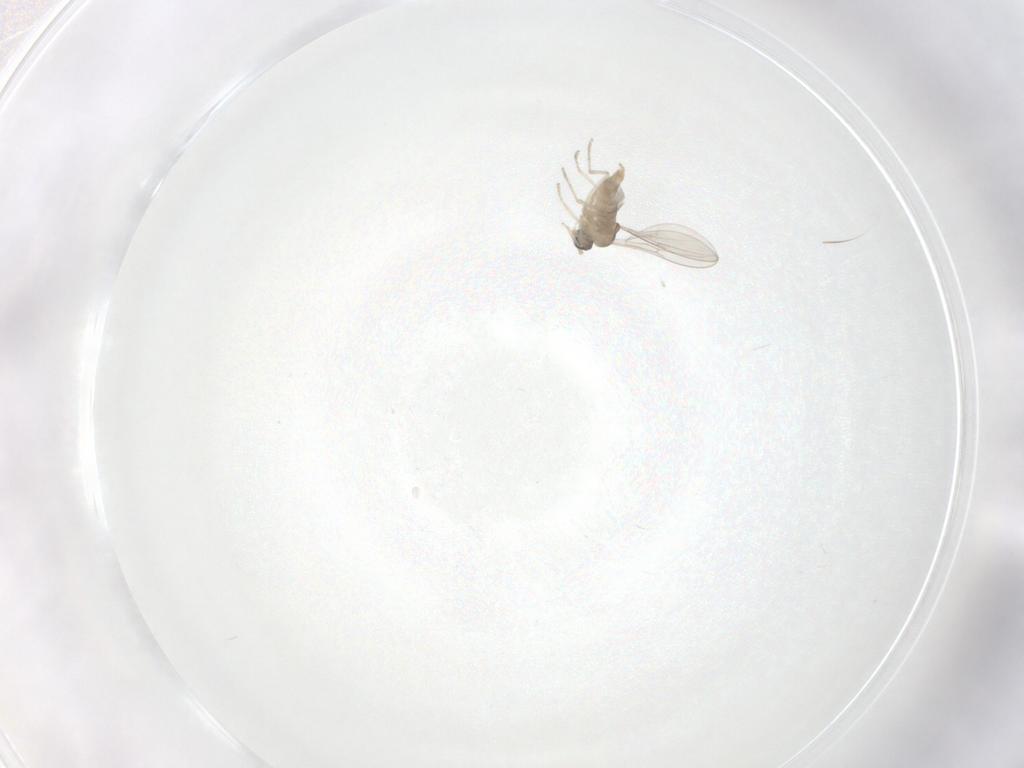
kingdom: Animalia
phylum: Arthropoda
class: Insecta
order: Diptera
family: Cecidomyiidae
